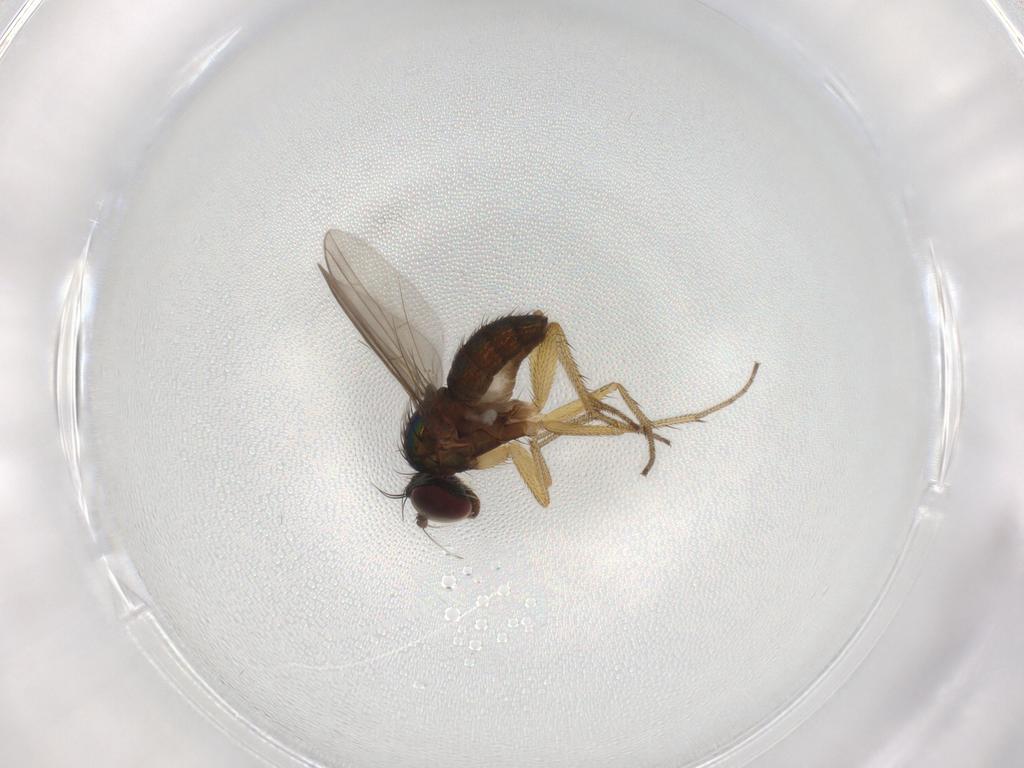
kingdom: Animalia
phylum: Arthropoda
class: Insecta
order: Diptera
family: Dolichopodidae
